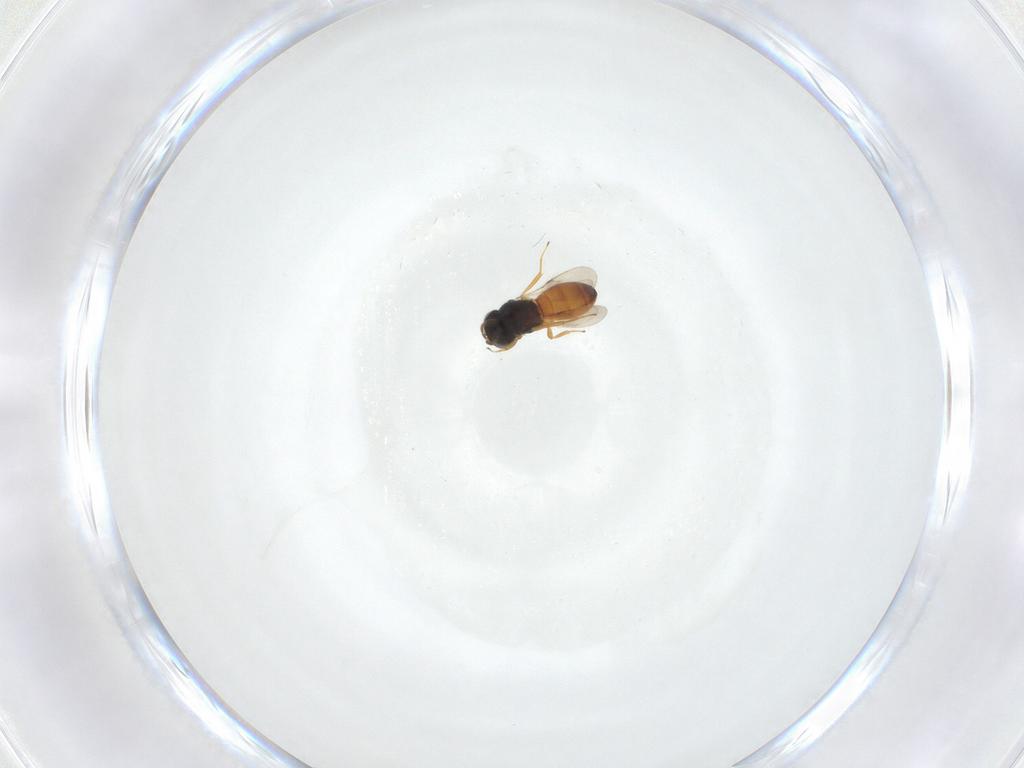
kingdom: Animalia
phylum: Arthropoda
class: Insecta
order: Hymenoptera
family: Scelionidae
